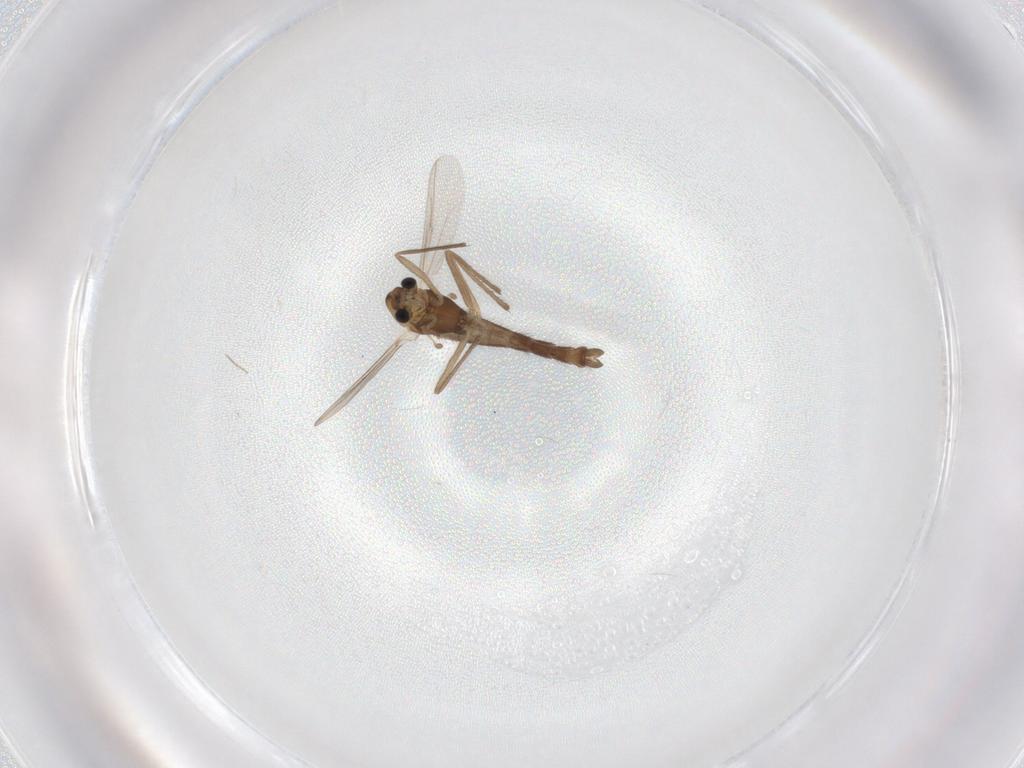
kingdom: Animalia
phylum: Arthropoda
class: Insecta
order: Diptera
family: Chironomidae
